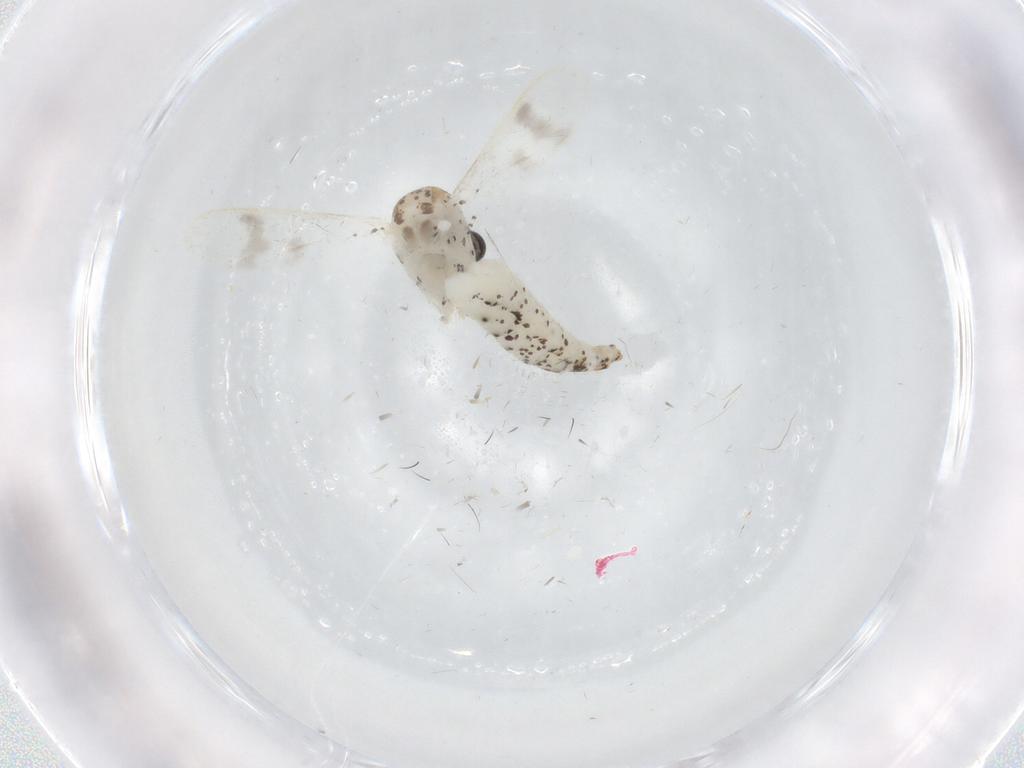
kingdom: Animalia
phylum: Arthropoda
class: Insecta
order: Diptera
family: Chaoboridae
